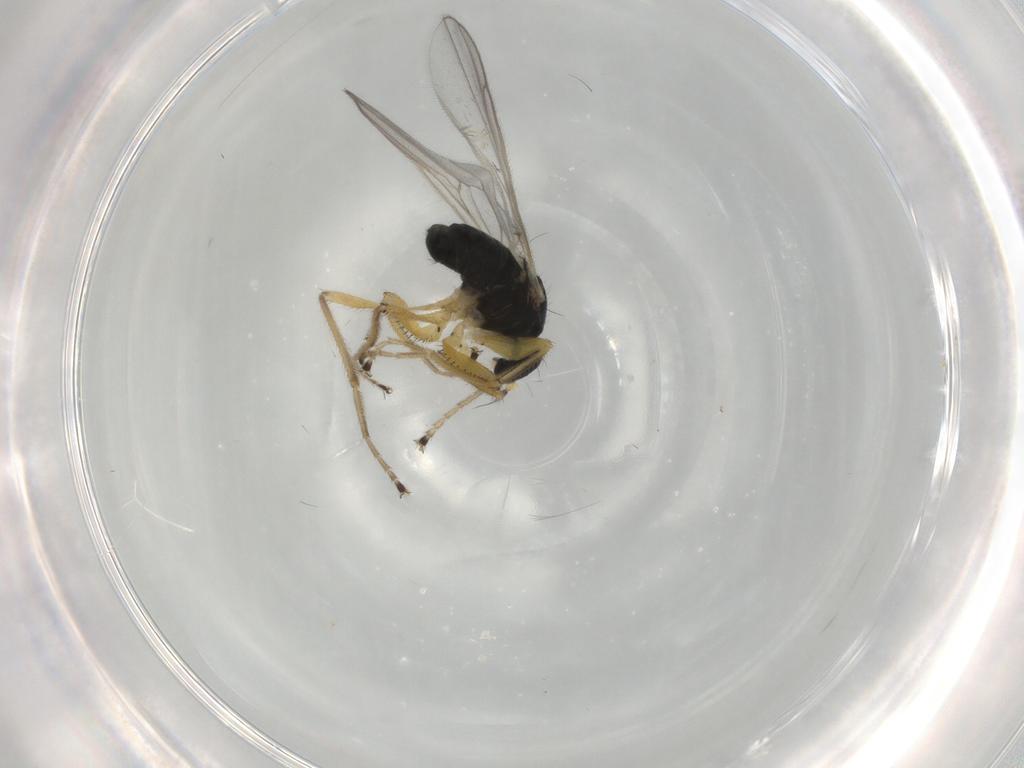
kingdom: Animalia
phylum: Arthropoda
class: Insecta
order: Diptera
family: Hybotidae
